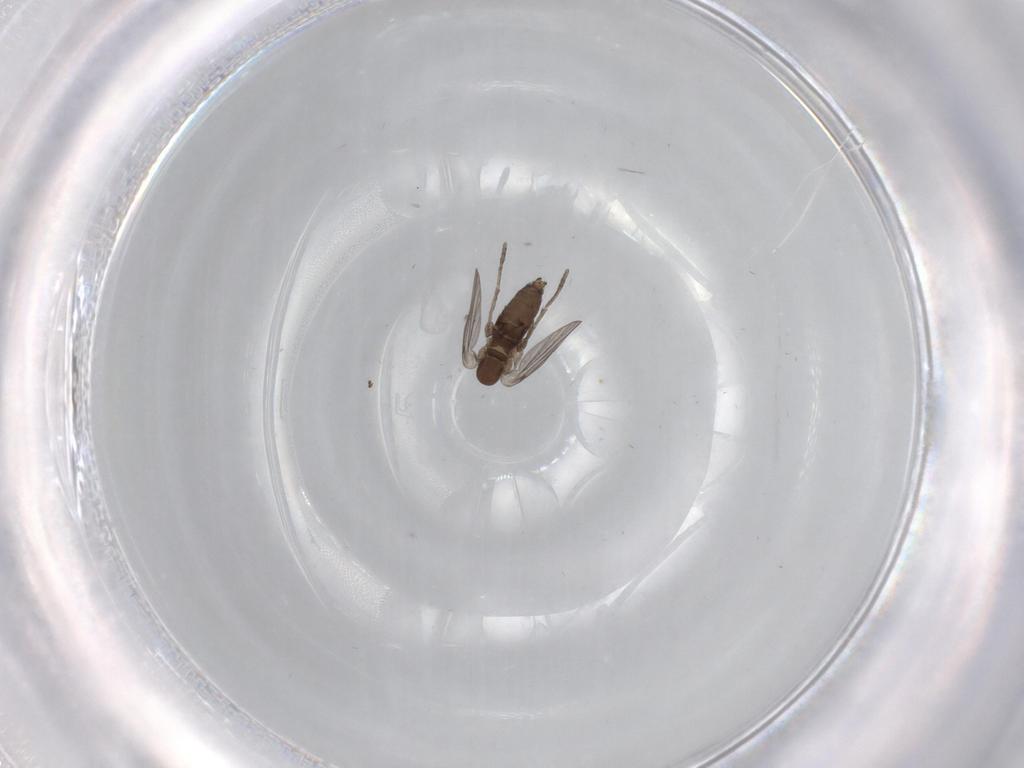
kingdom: Animalia
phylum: Arthropoda
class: Insecta
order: Diptera
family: Chironomidae
